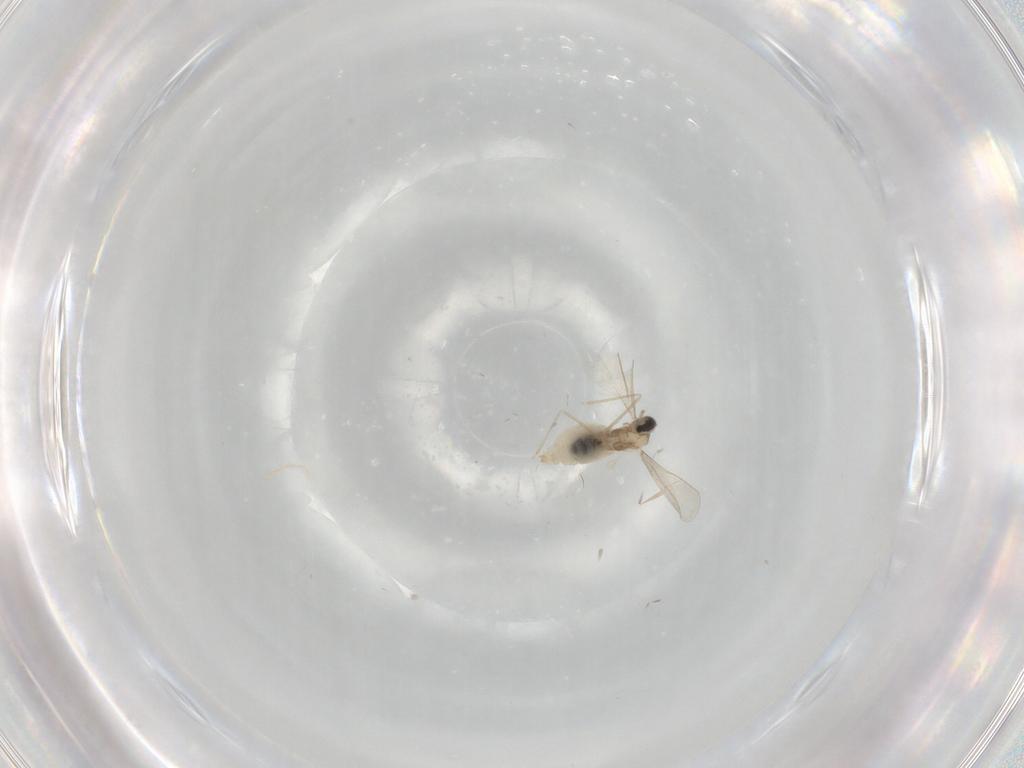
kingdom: Animalia
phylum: Arthropoda
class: Insecta
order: Diptera
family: Cecidomyiidae
